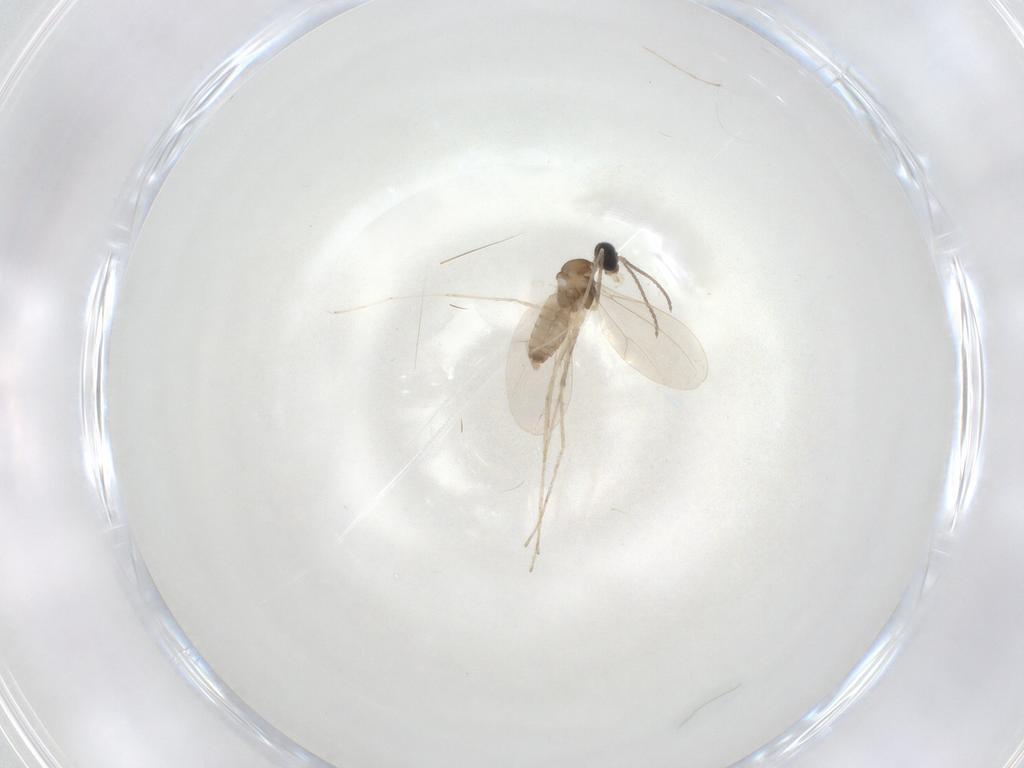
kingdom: Animalia
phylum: Arthropoda
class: Insecta
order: Diptera
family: Cecidomyiidae
